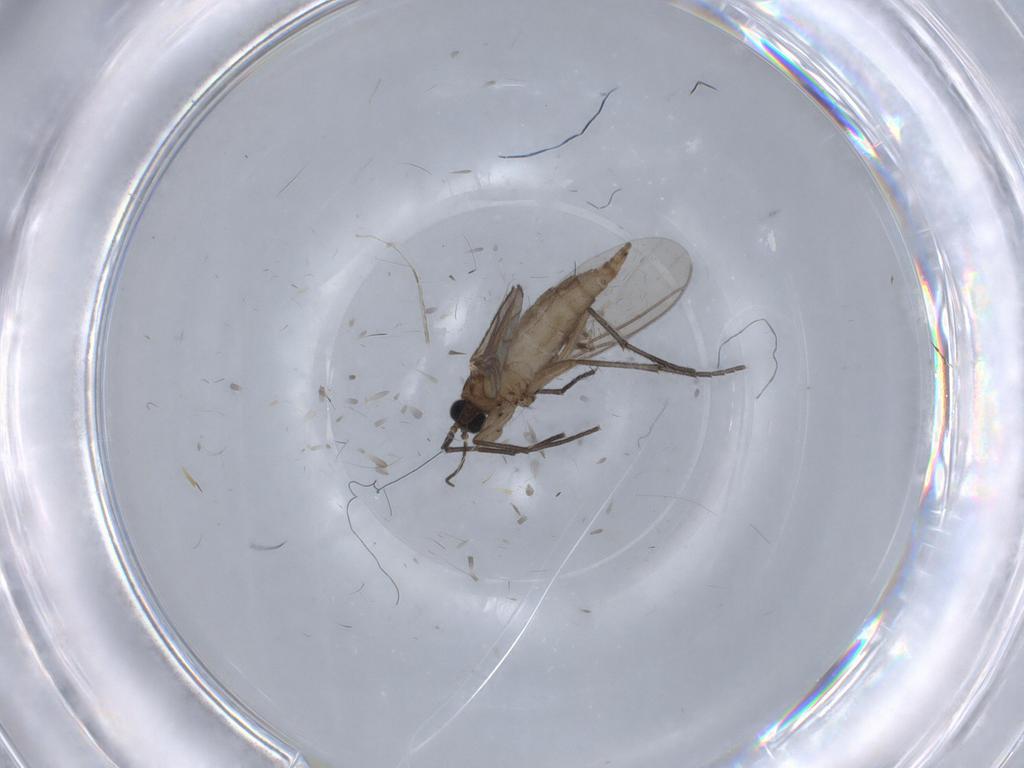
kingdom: Animalia
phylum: Arthropoda
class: Insecta
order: Diptera
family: Sciaridae
